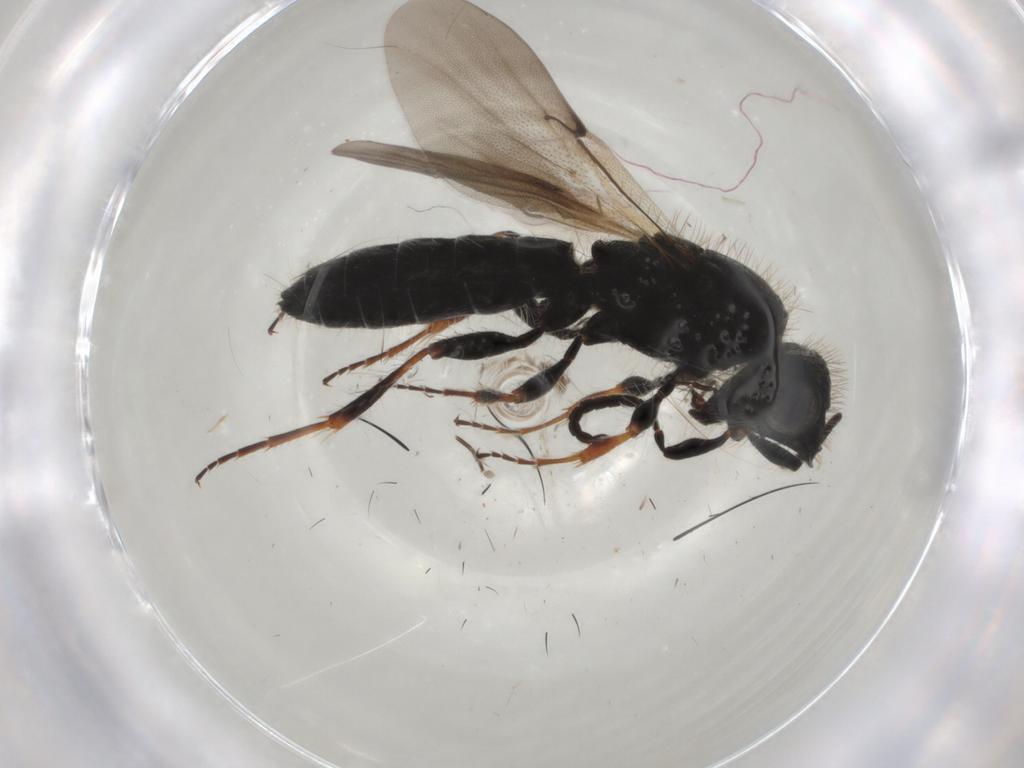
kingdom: Animalia
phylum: Arthropoda
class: Insecta
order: Hymenoptera
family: Scelionidae
